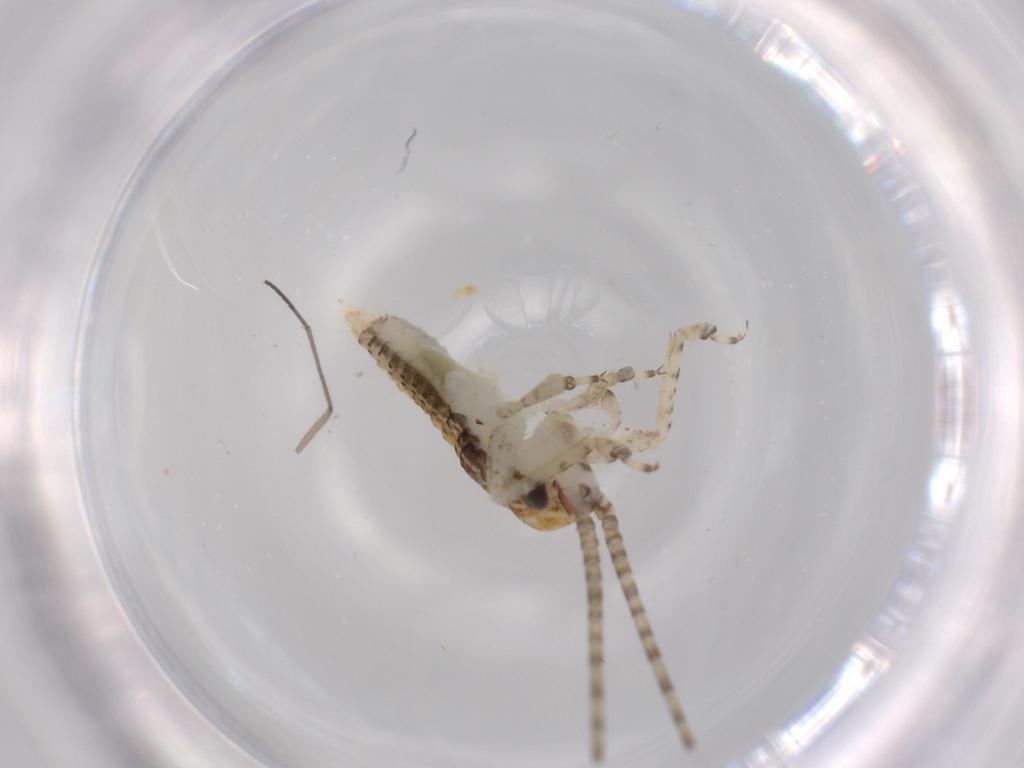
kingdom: Animalia
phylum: Arthropoda
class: Insecta
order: Orthoptera
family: Gryllidae
